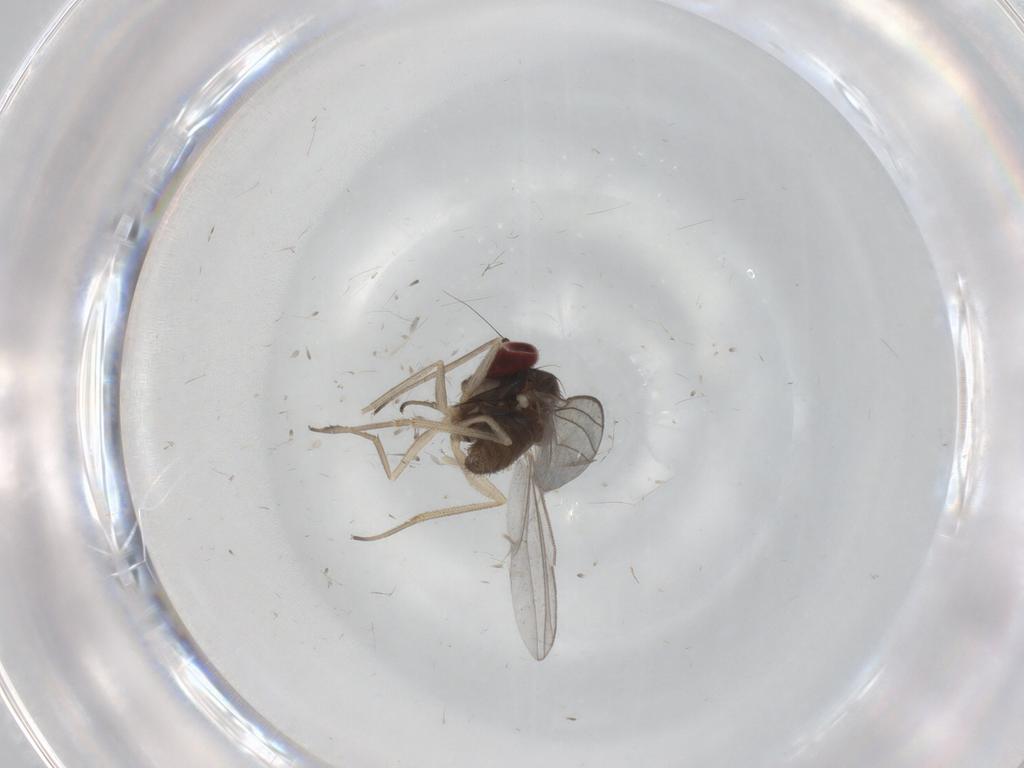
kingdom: Animalia
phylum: Arthropoda
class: Insecta
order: Diptera
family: Dolichopodidae
